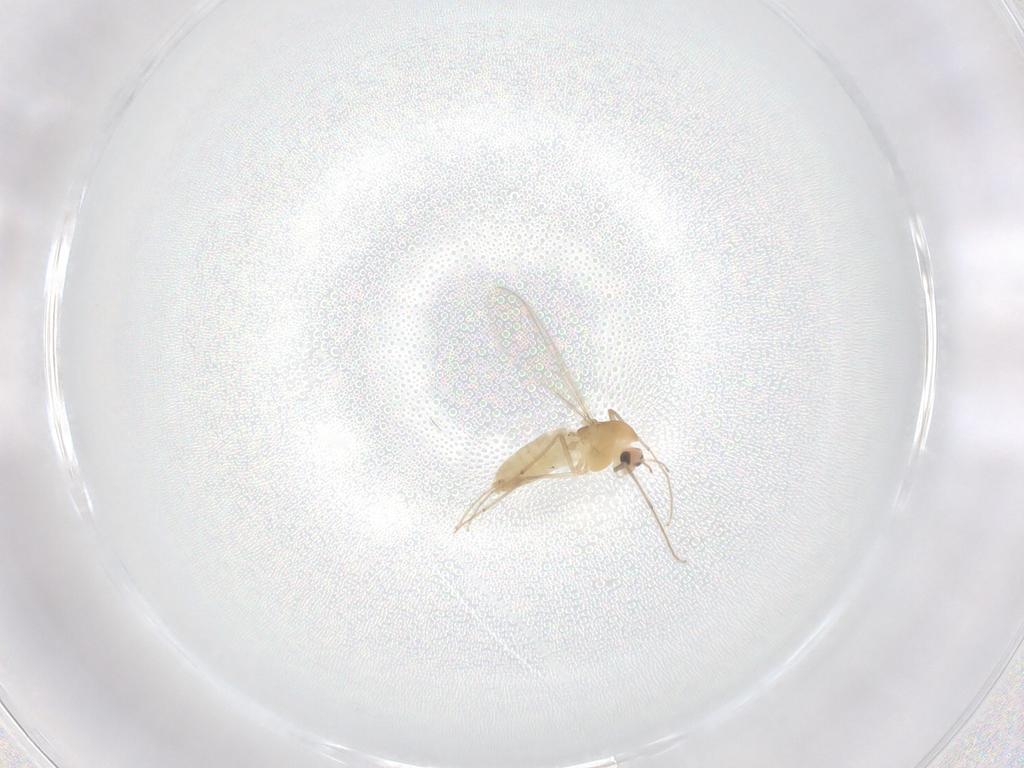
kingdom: Animalia
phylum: Arthropoda
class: Insecta
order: Diptera
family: Chironomidae
